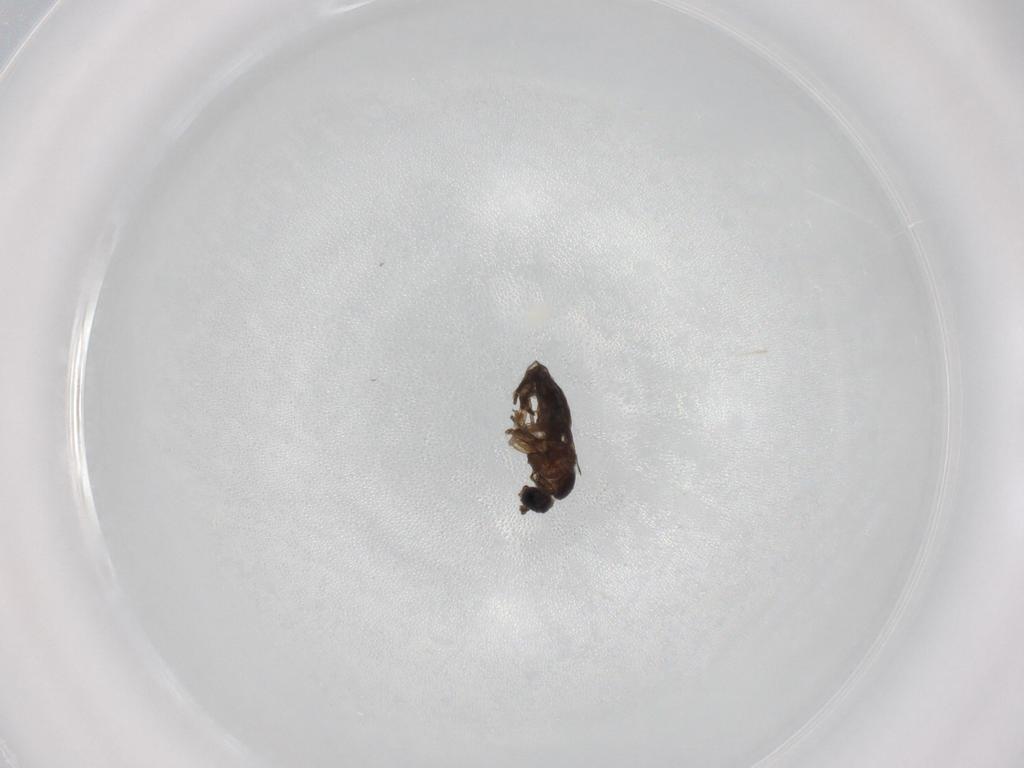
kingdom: Animalia
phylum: Arthropoda
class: Insecta
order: Diptera
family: Sciaridae
